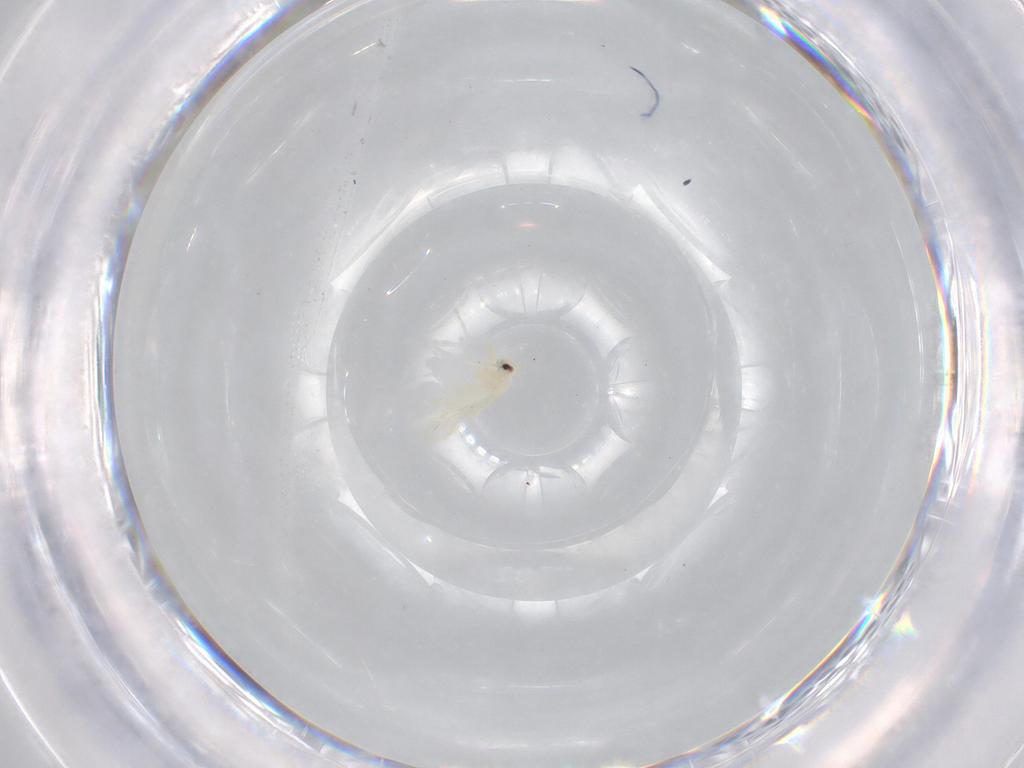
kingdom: Animalia
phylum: Arthropoda
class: Insecta
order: Hemiptera
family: Aleyrodidae
